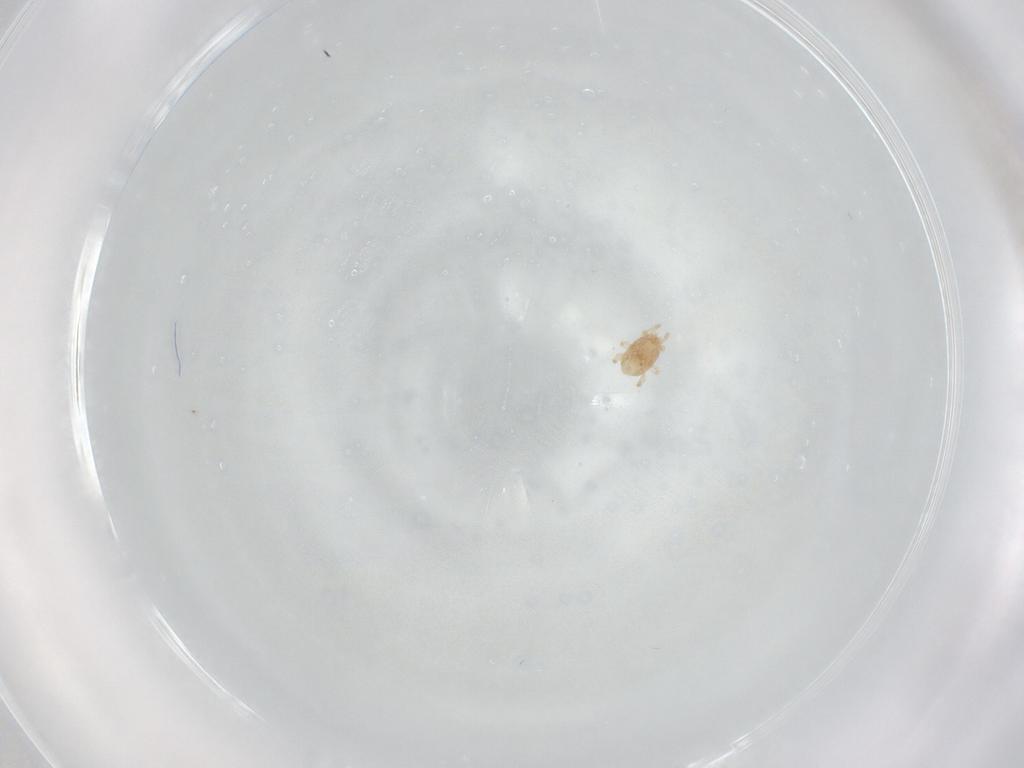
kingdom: Animalia
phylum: Arthropoda
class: Arachnida
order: Mesostigmata
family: Melicharidae
